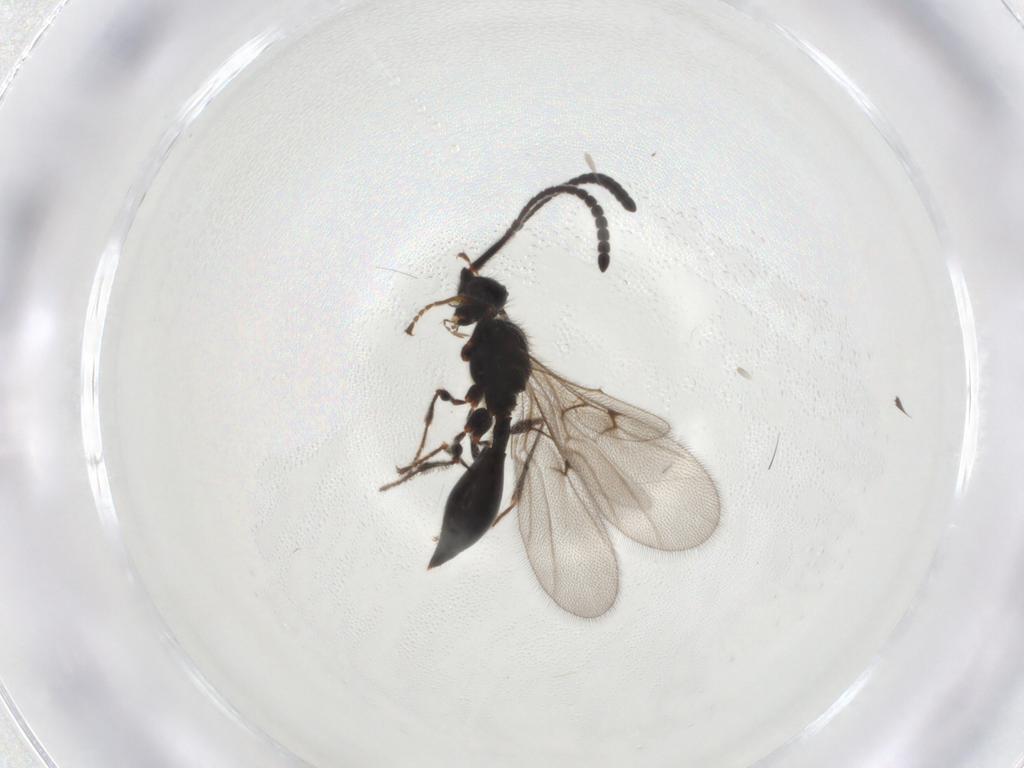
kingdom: Animalia
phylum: Arthropoda
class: Insecta
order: Hymenoptera
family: Diapriidae
